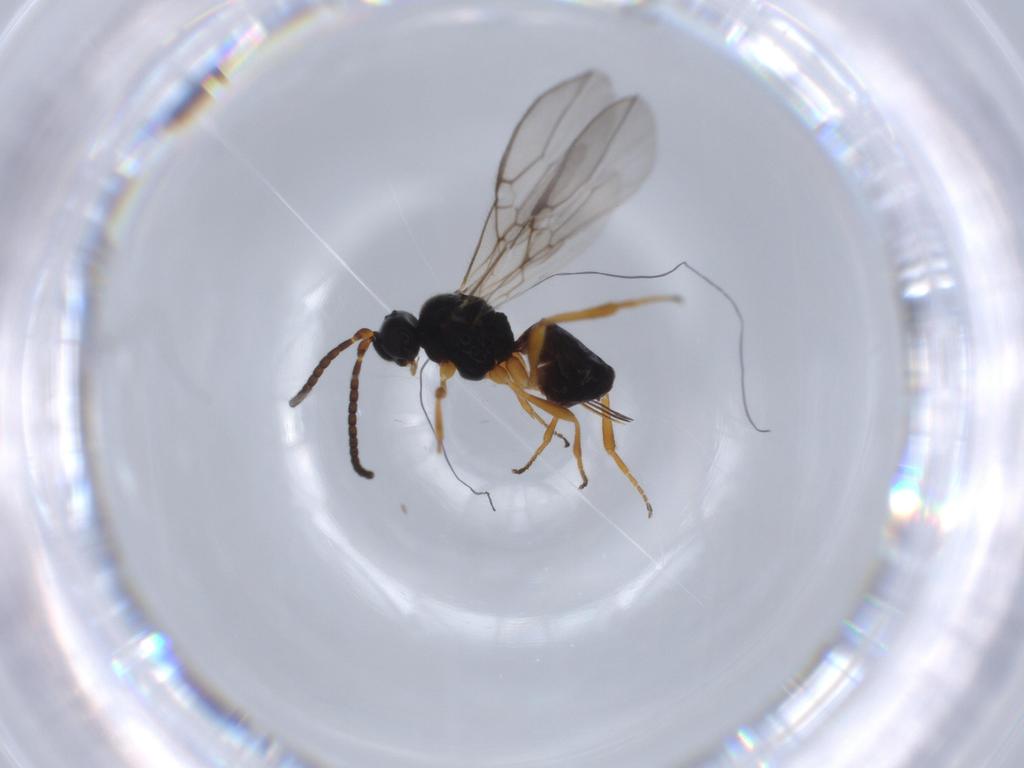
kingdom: Animalia
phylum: Arthropoda
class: Insecta
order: Hymenoptera
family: Braconidae
